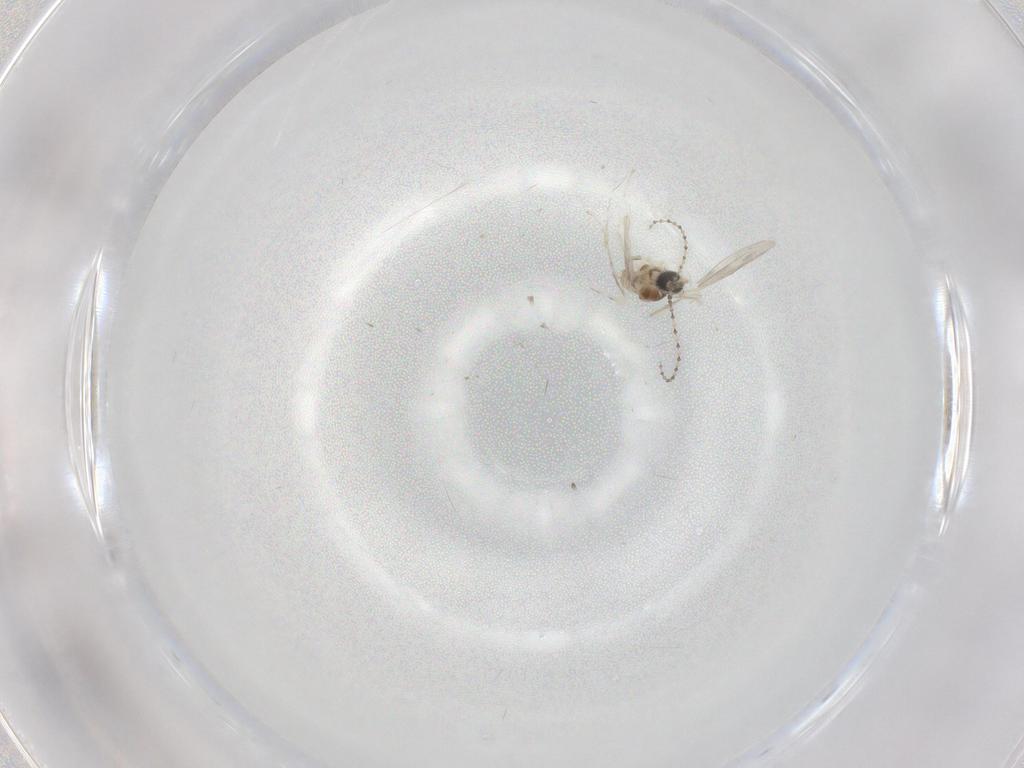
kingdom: Animalia
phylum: Arthropoda
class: Insecta
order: Diptera
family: Cecidomyiidae
